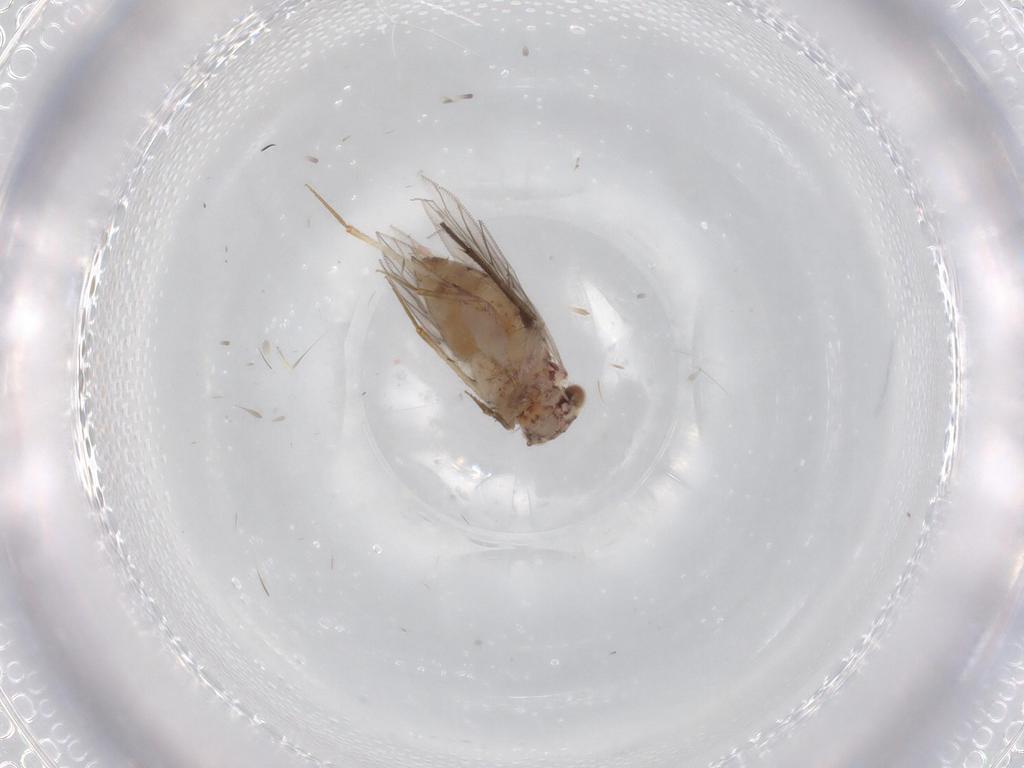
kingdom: Animalia
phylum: Arthropoda
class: Insecta
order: Psocodea
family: Lepidopsocidae
